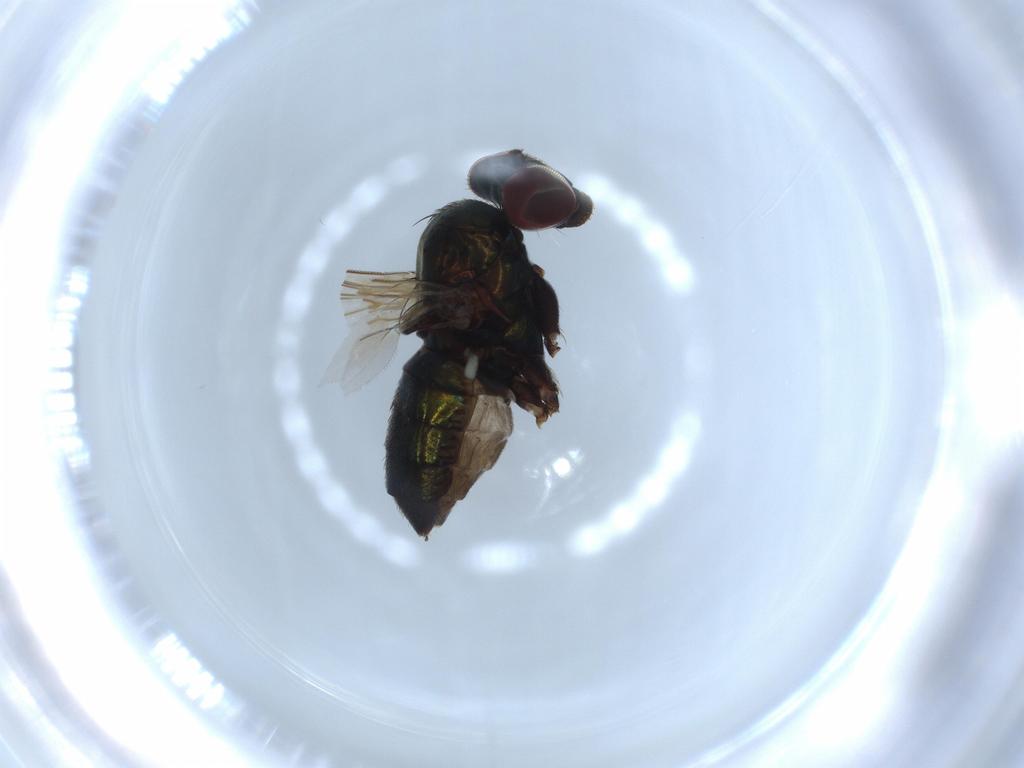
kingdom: Animalia
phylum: Arthropoda
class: Insecta
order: Diptera
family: Dolichopodidae
